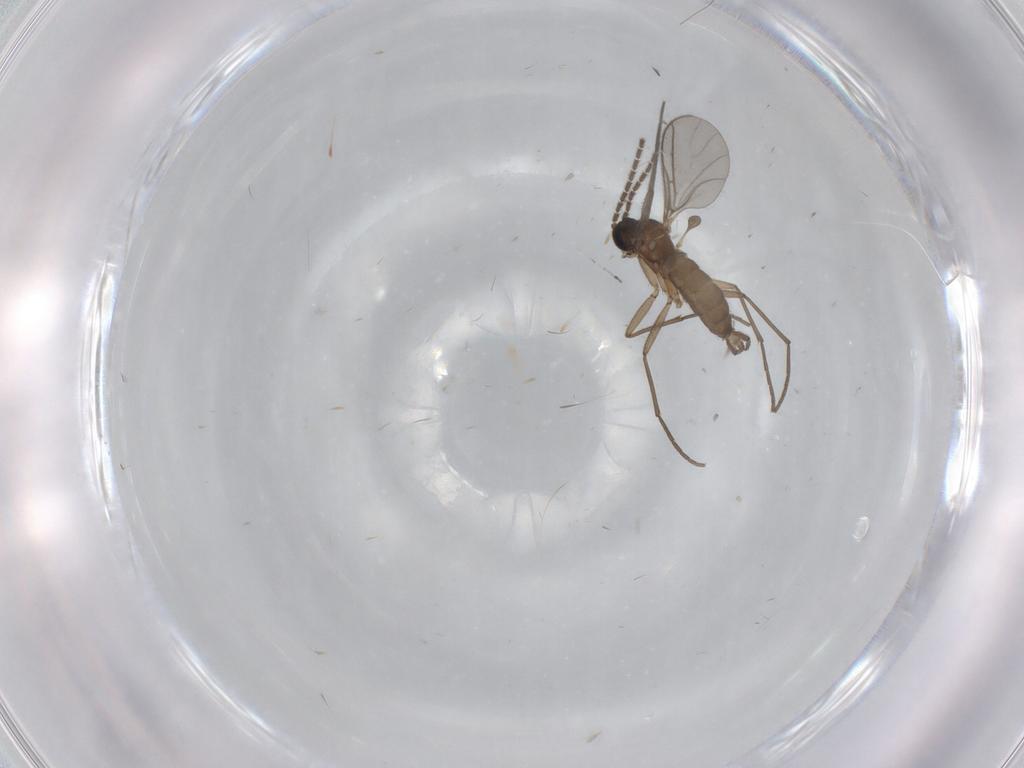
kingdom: Animalia
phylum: Arthropoda
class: Insecta
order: Diptera
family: Sciaridae
